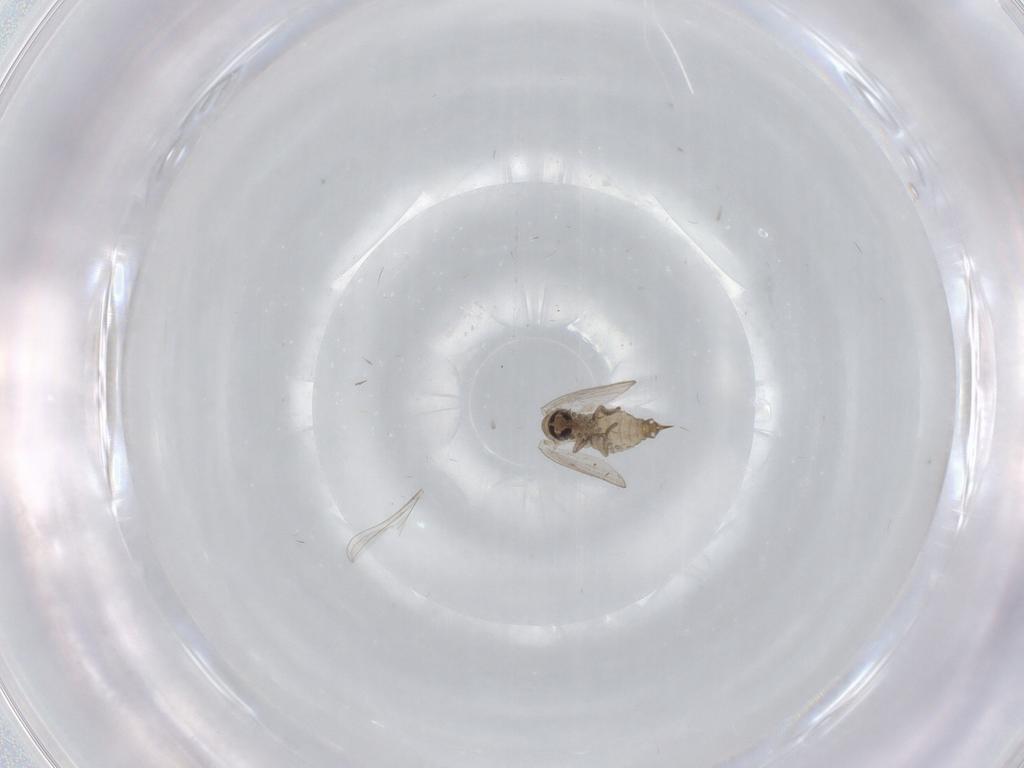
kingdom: Animalia
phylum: Arthropoda
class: Insecta
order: Diptera
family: Psychodidae
